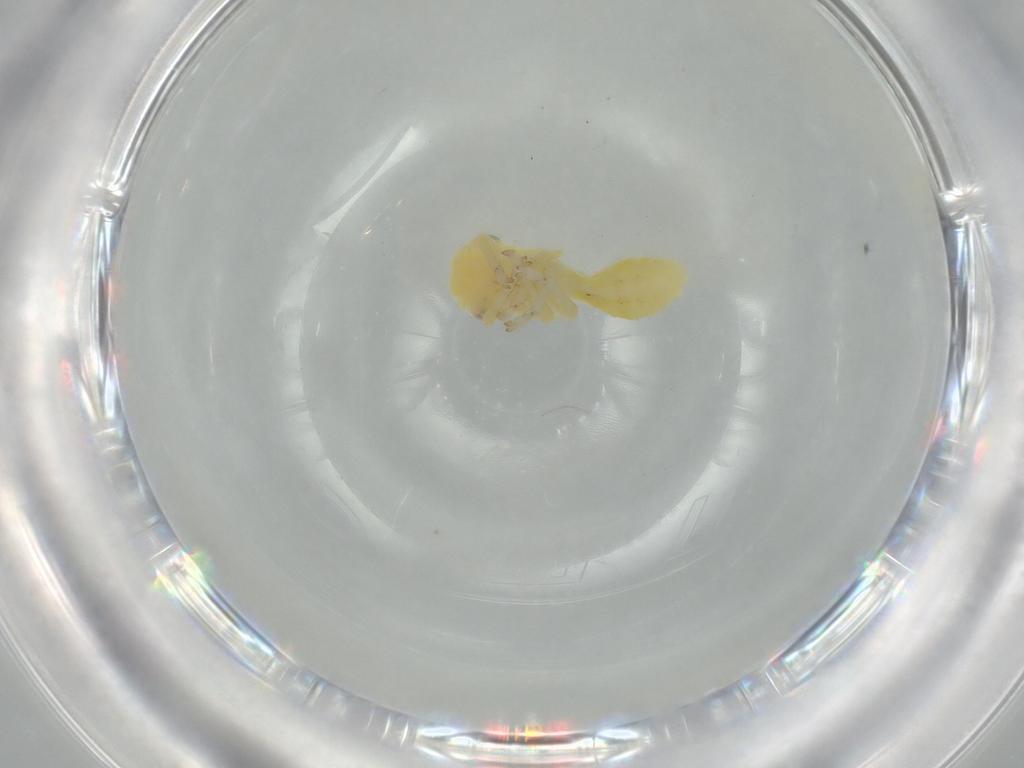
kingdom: Animalia
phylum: Arthropoda
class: Insecta
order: Hemiptera
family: Cicadellidae
